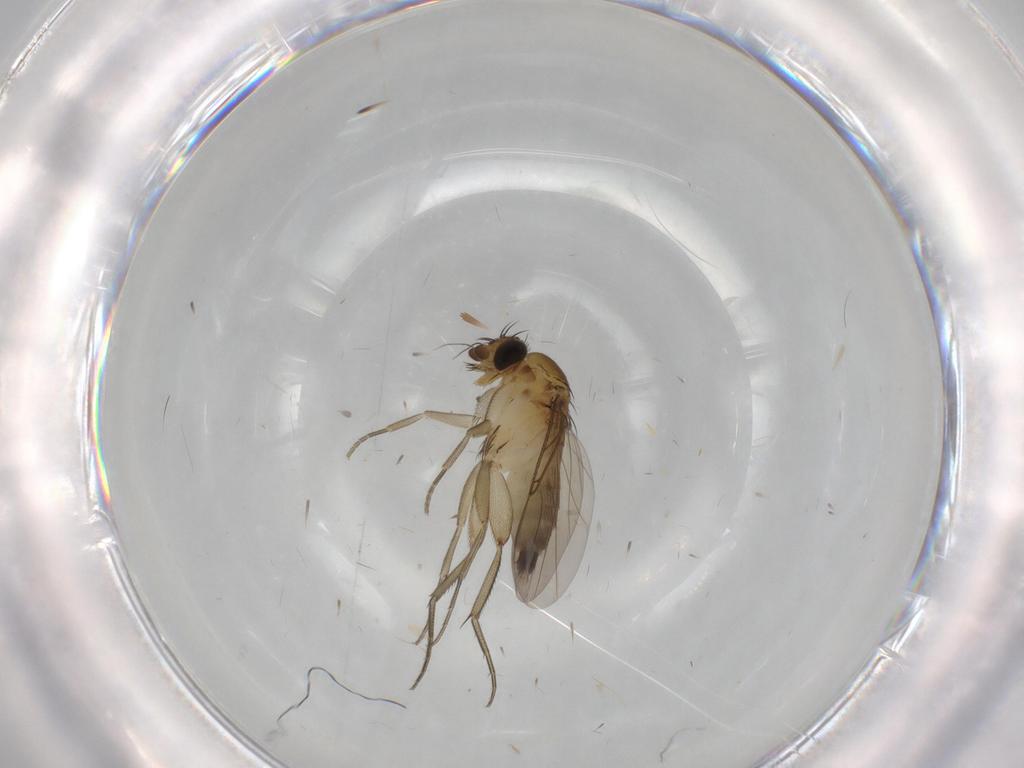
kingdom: Animalia
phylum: Arthropoda
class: Insecta
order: Diptera
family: Phoridae
